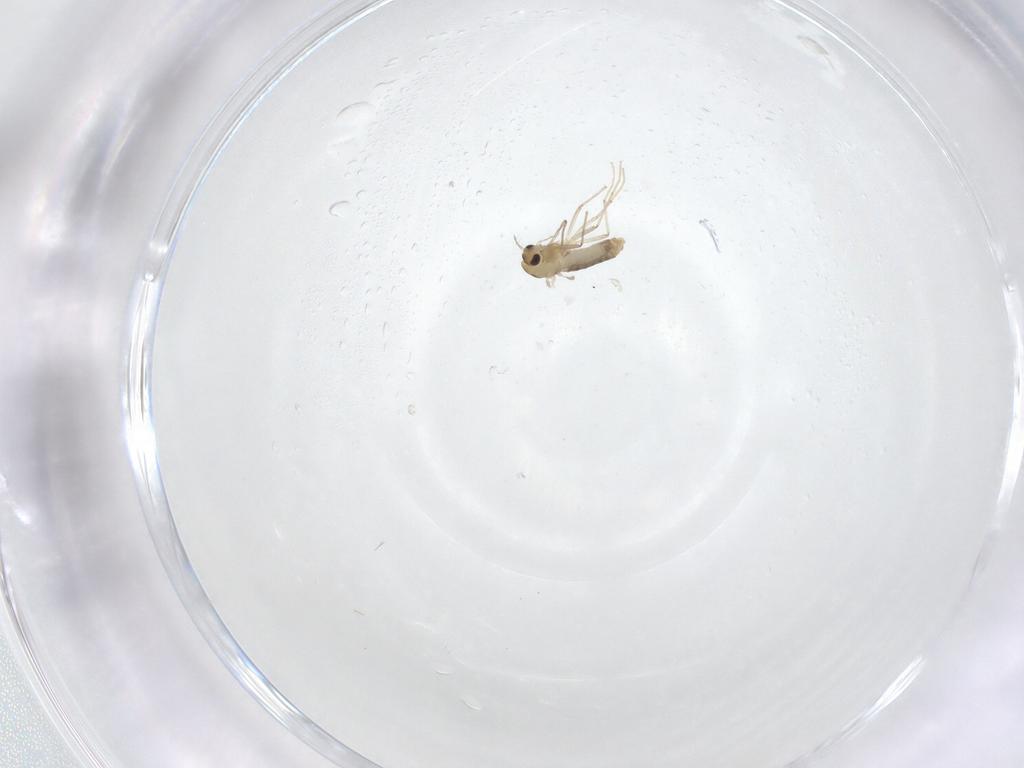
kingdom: Animalia
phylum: Arthropoda
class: Insecta
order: Diptera
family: Chironomidae
